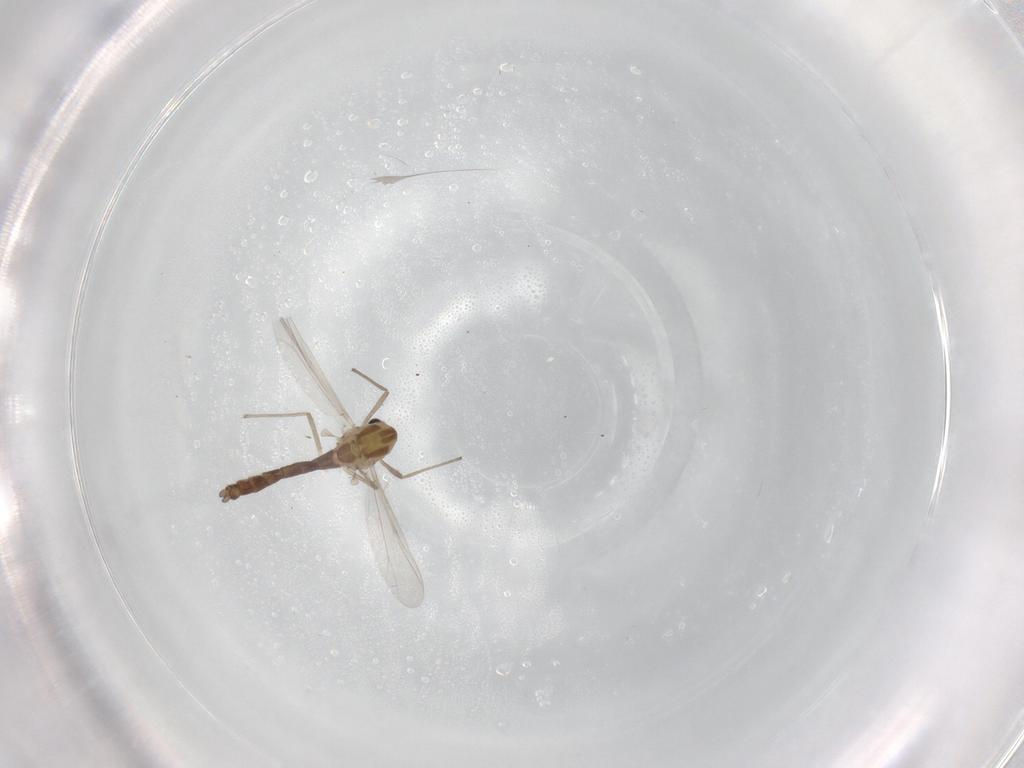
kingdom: Animalia
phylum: Arthropoda
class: Insecta
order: Diptera
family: Chironomidae
